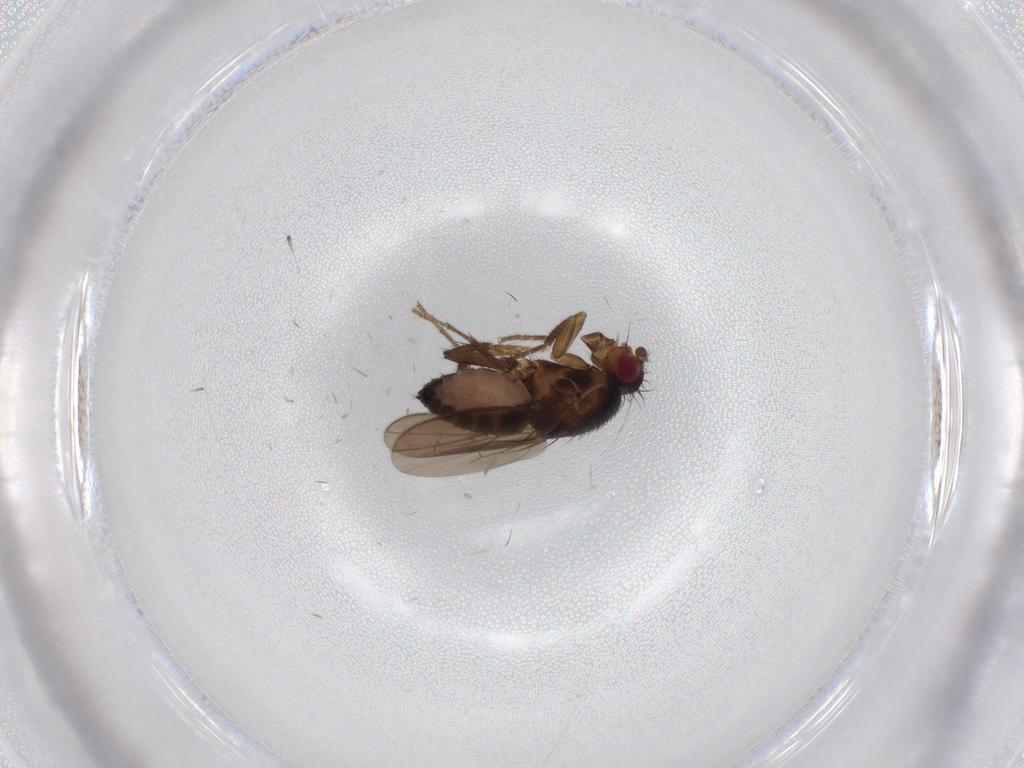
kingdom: Animalia
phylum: Arthropoda
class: Insecta
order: Diptera
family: Sphaeroceridae
